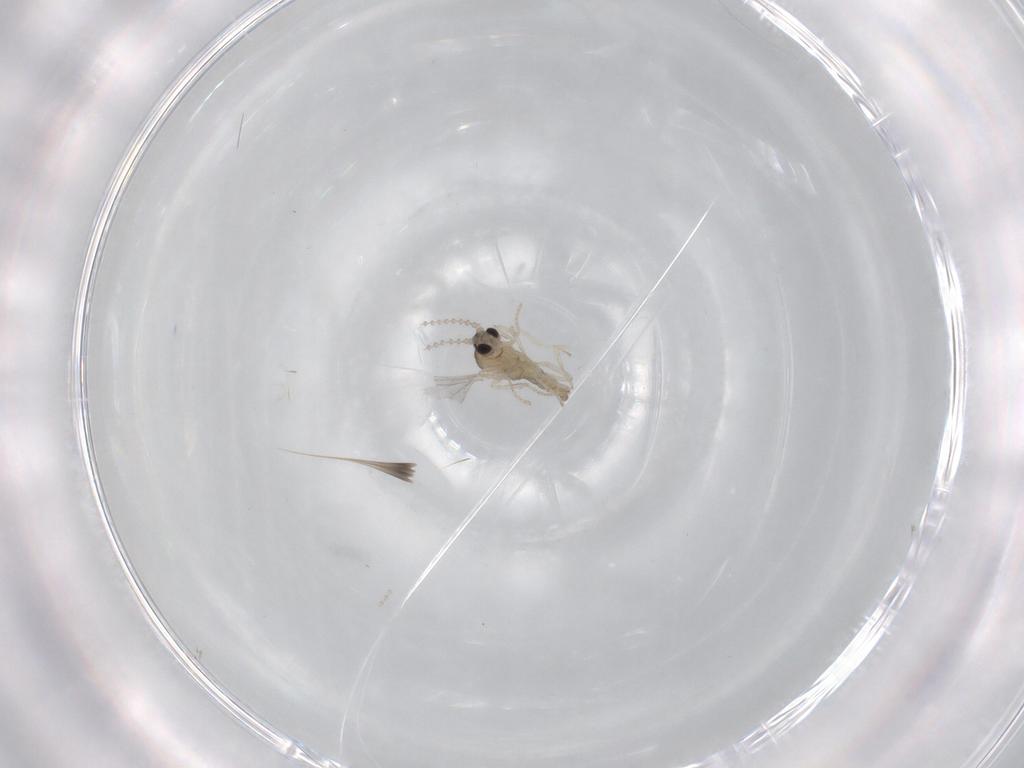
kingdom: Animalia
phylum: Arthropoda
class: Insecta
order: Diptera
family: Cecidomyiidae
